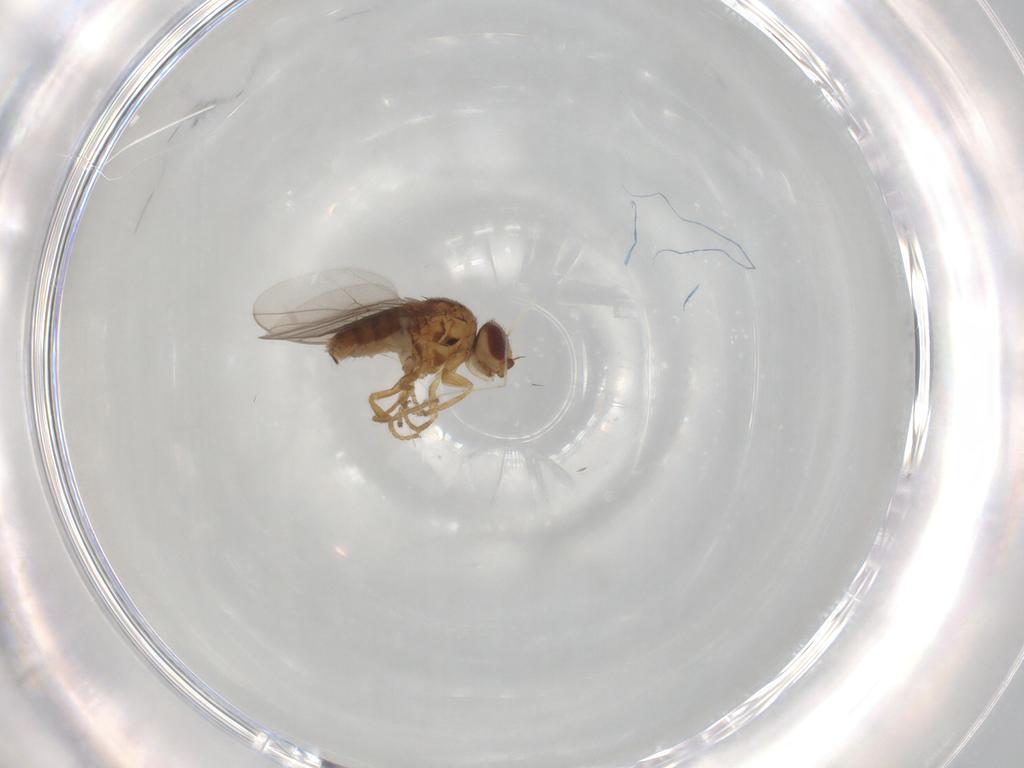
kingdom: Animalia
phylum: Arthropoda
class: Insecta
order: Diptera
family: Chloropidae
